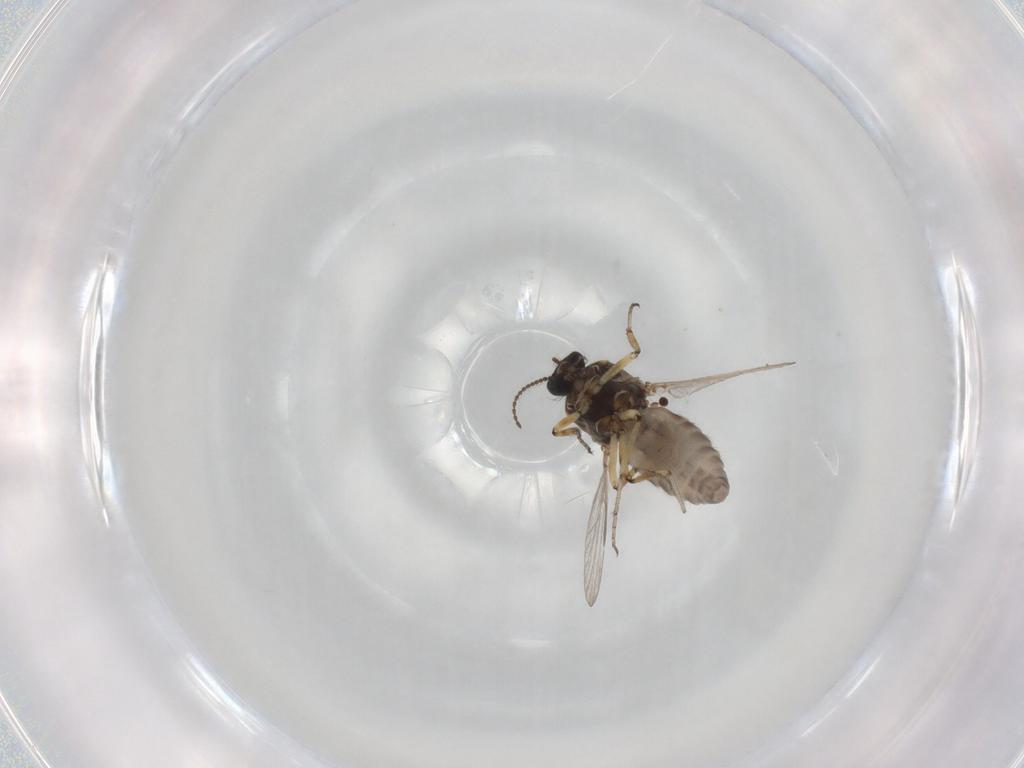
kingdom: Animalia
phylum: Arthropoda
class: Insecta
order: Diptera
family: Ceratopogonidae
